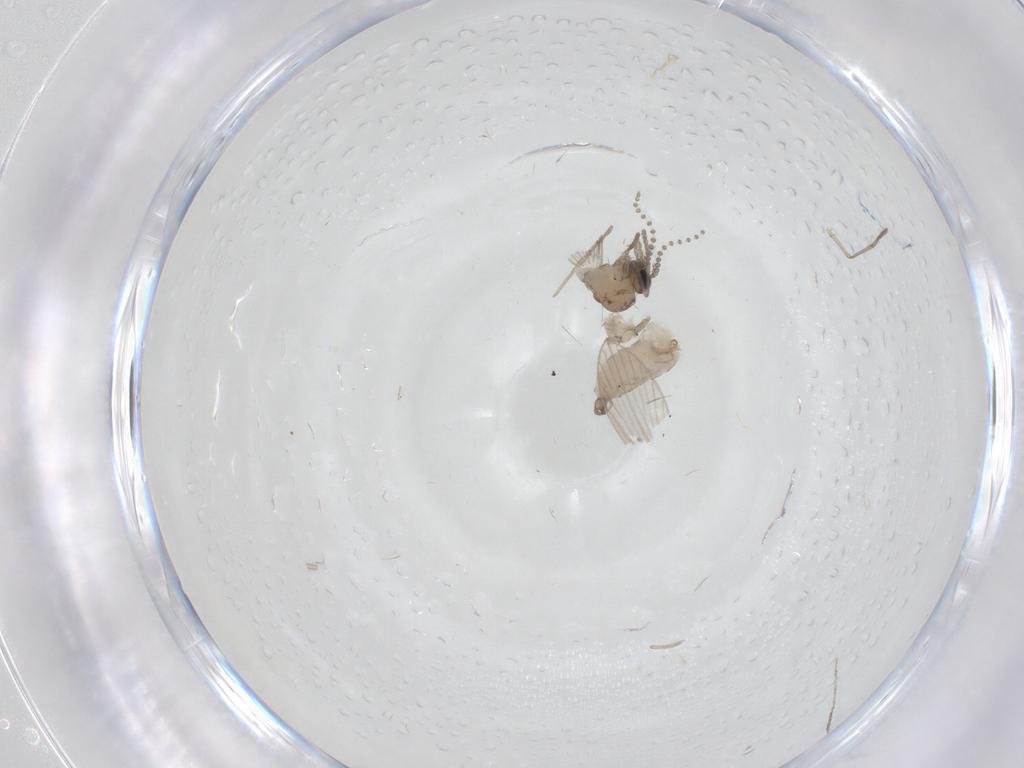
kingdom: Animalia
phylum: Arthropoda
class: Insecta
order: Diptera
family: Psychodidae
